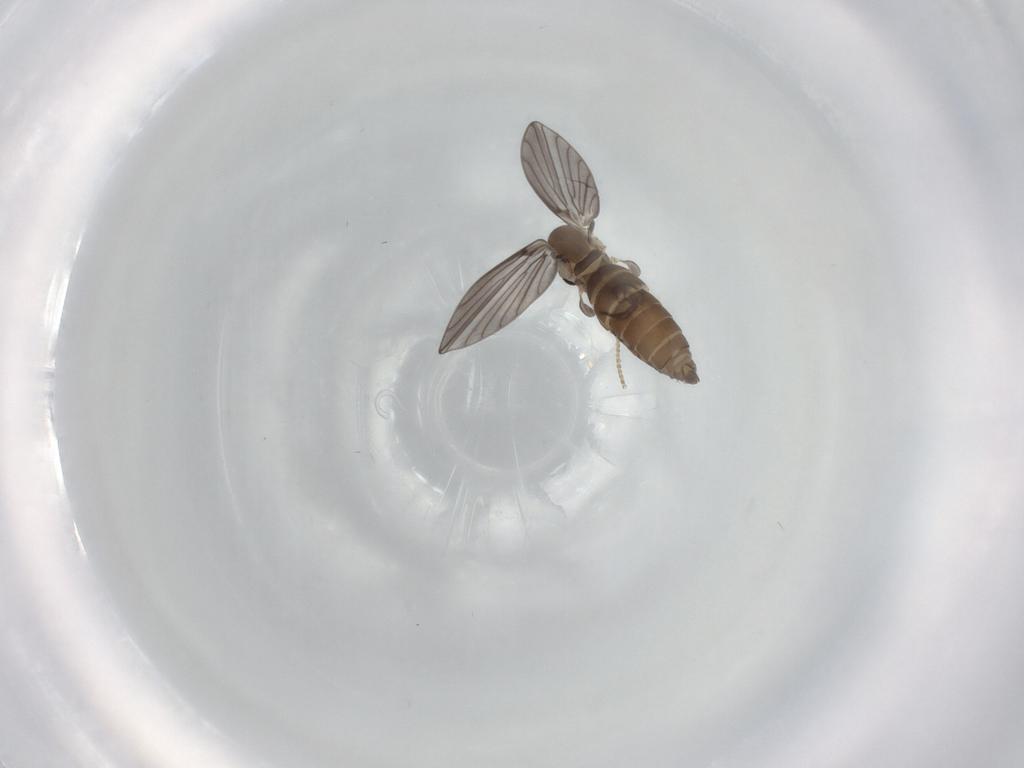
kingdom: Animalia
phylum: Arthropoda
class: Insecta
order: Diptera
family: Psychodidae
